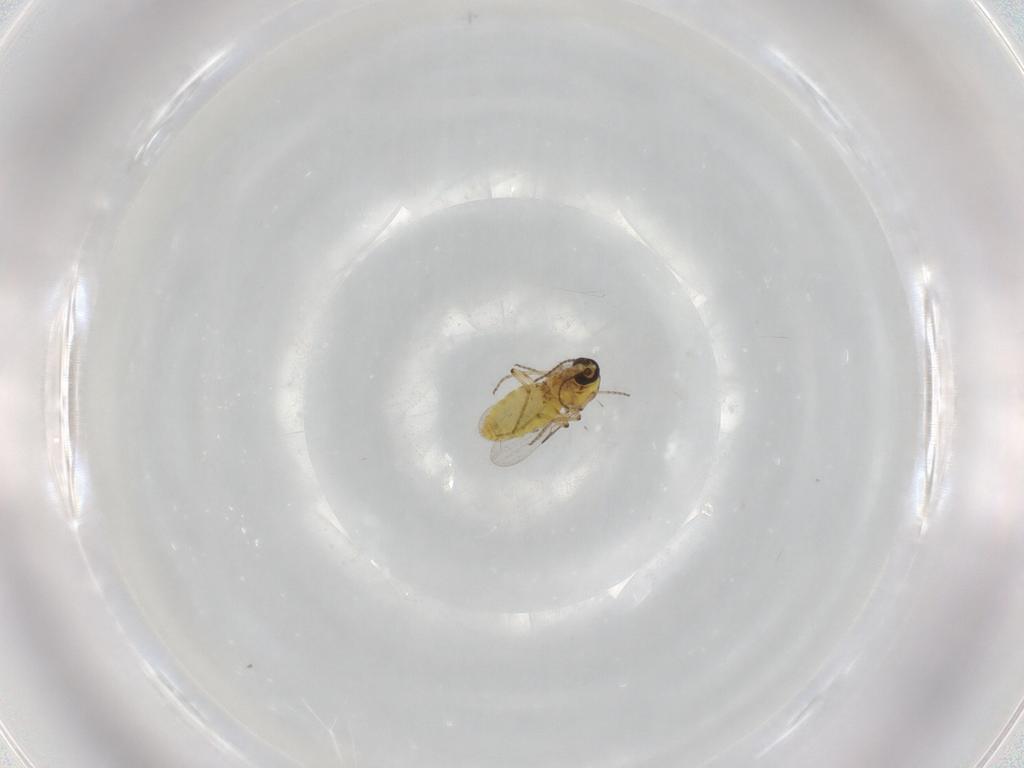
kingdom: Animalia
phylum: Arthropoda
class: Insecta
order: Diptera
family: Ceratopogonidae
